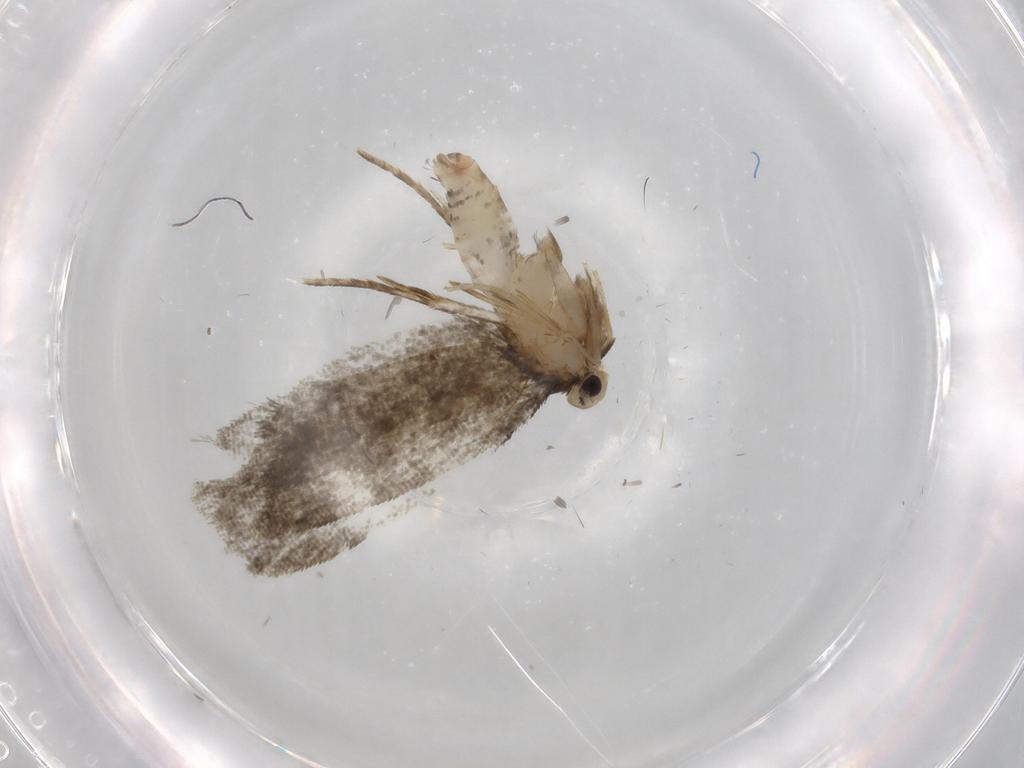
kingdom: Animalia
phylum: Arthropoda
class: Insecta
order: Lepidoptera
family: Psychidae
